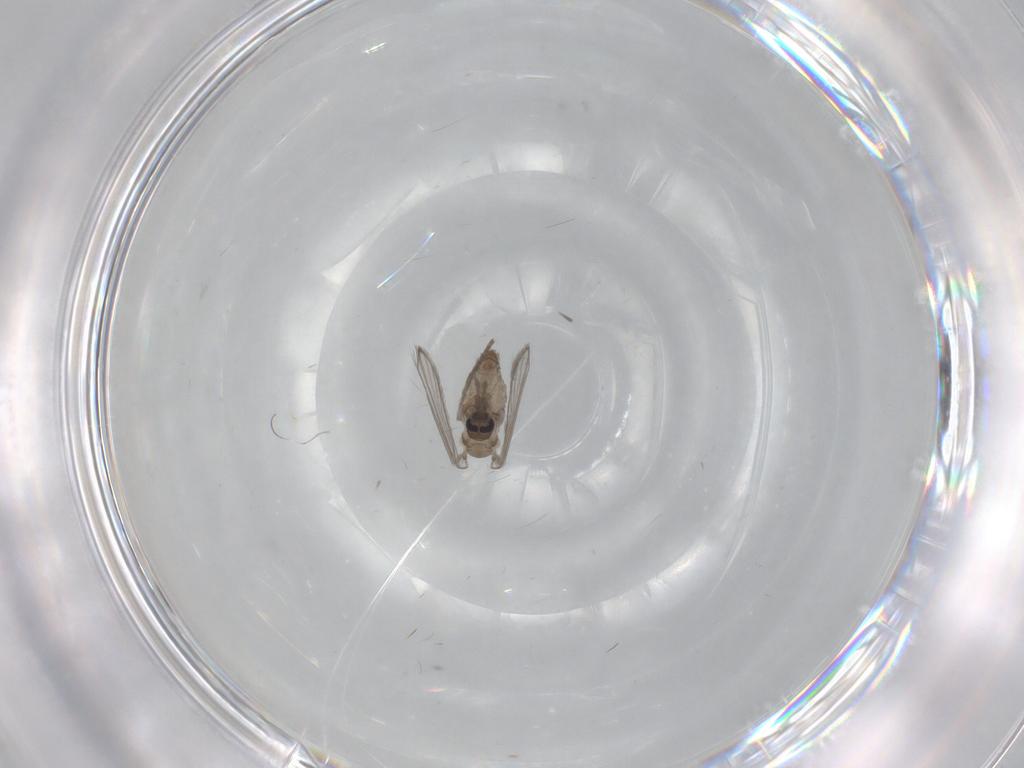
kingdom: Animalia
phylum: Arthropoda
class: Insecta
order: Diptera
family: Psychodidae
